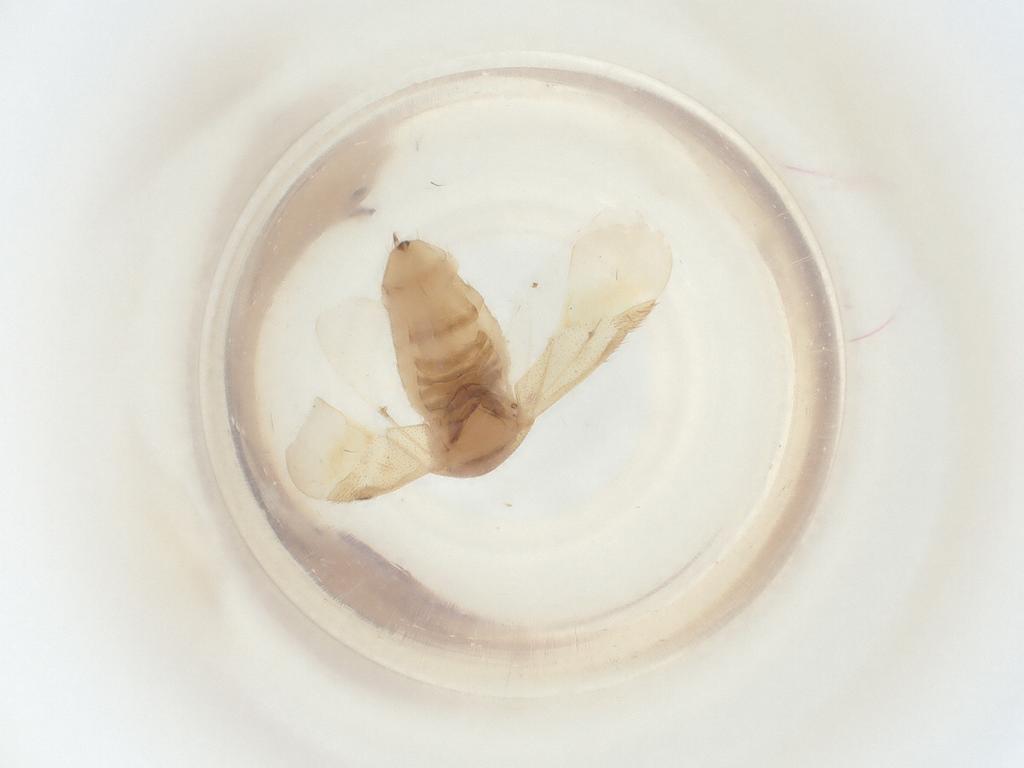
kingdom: Animalia
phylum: Arthropoda
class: Insecta
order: Diptera
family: Chironomidae
